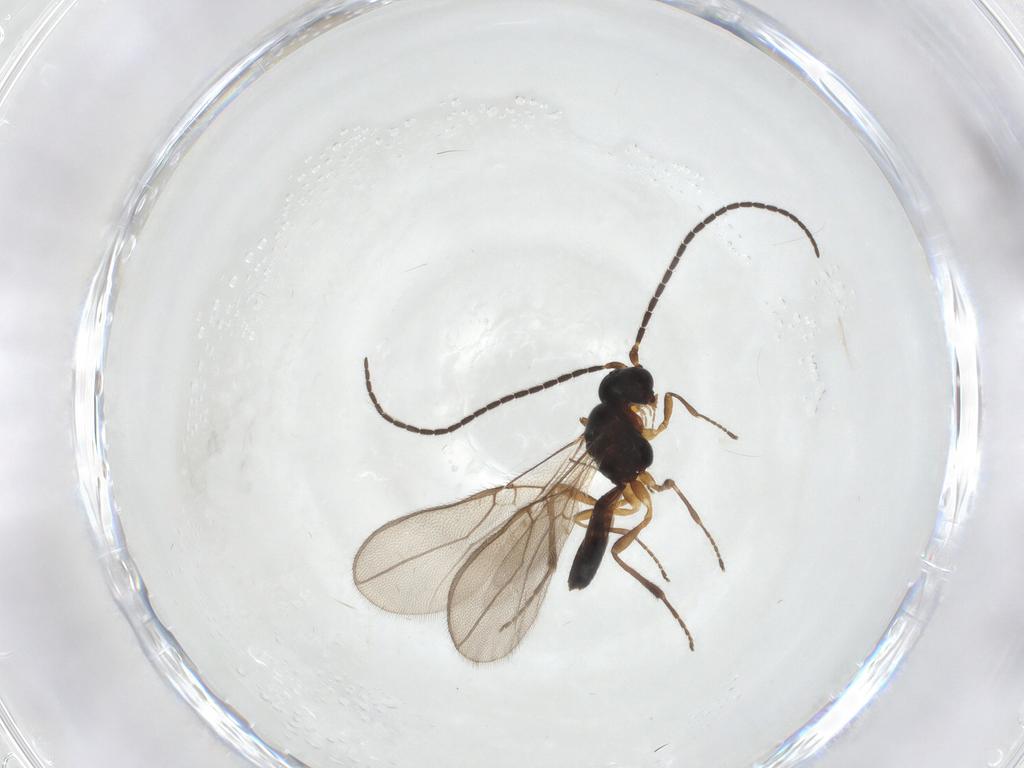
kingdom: Animalia
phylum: Arthropoda
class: Insecta
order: Hymenoptera
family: Braconidae
